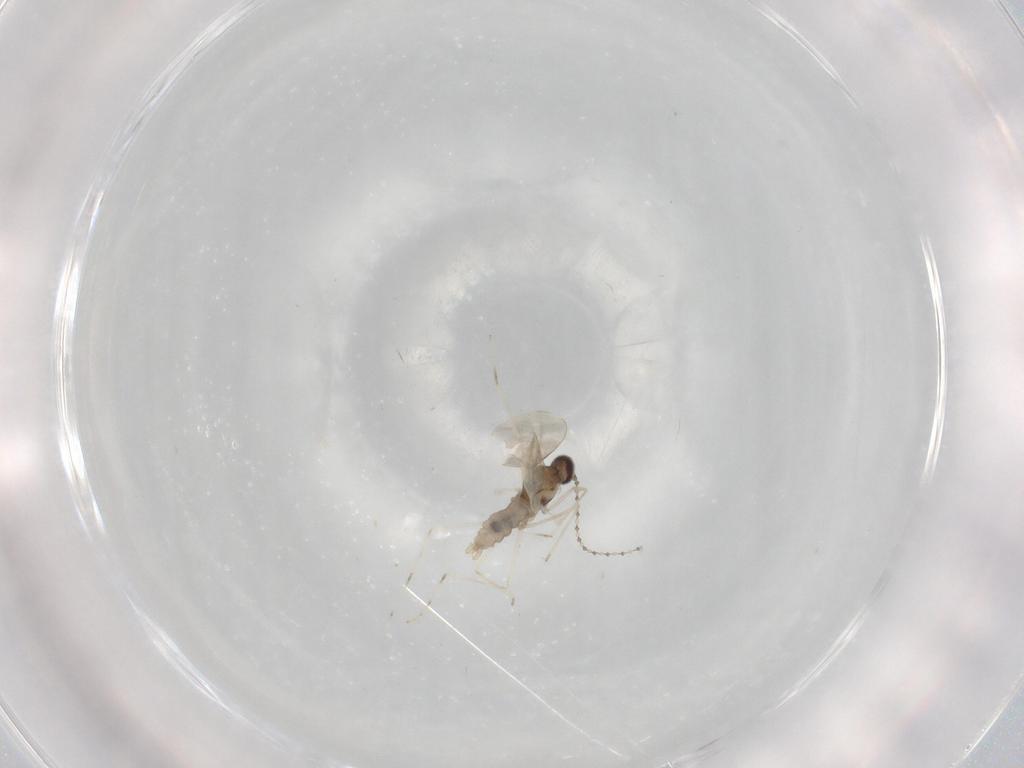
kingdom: Animalia
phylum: Arthropoda
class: Insecta
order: Diptera
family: Cecidomyiidae
